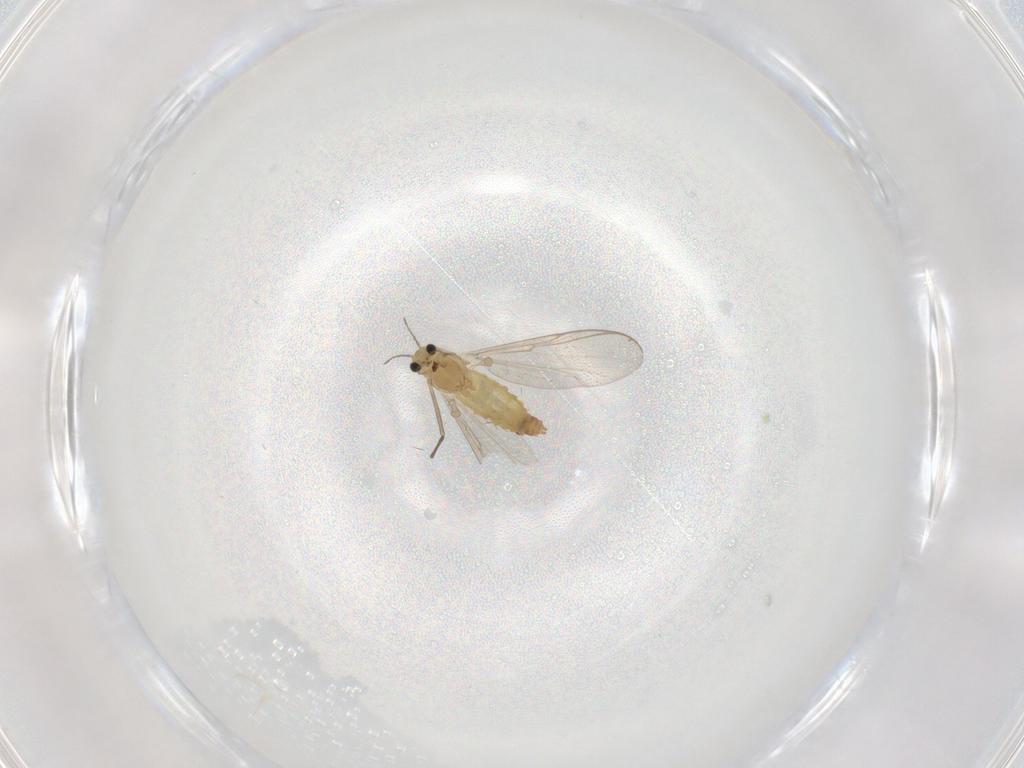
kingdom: Animalia
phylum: Arthropoda
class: Insecta
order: Diptera
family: Chironomidae
